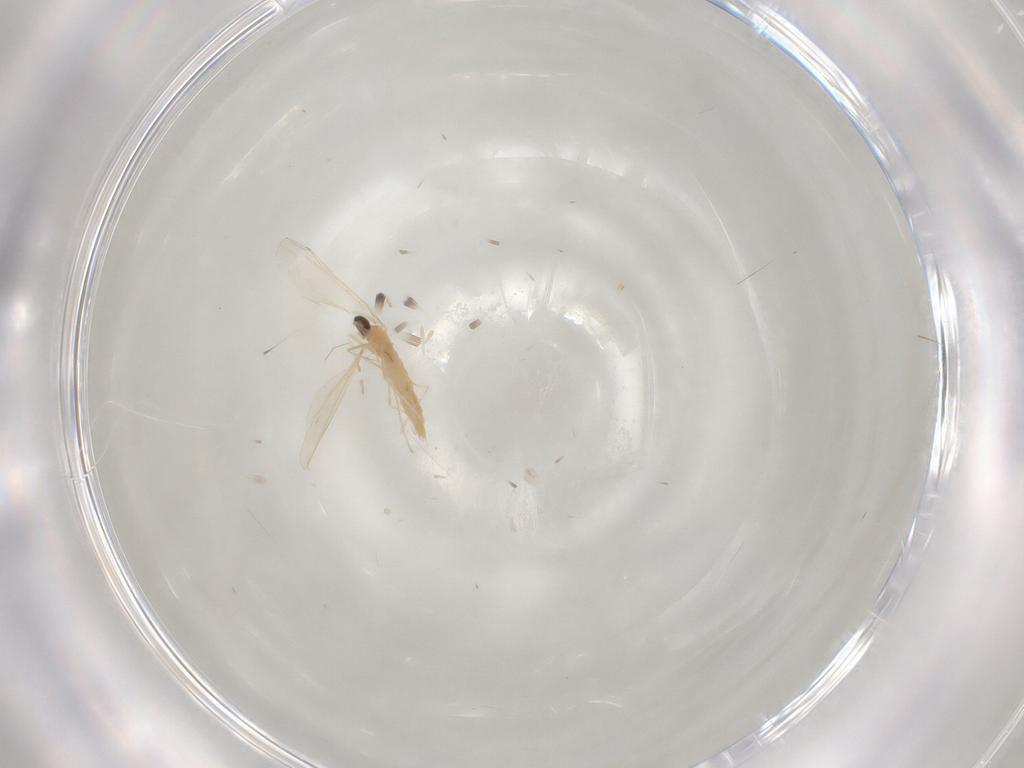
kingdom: Animalia
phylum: Arthropoda
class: Insecta
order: Diptera
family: Cecidomyiidae
